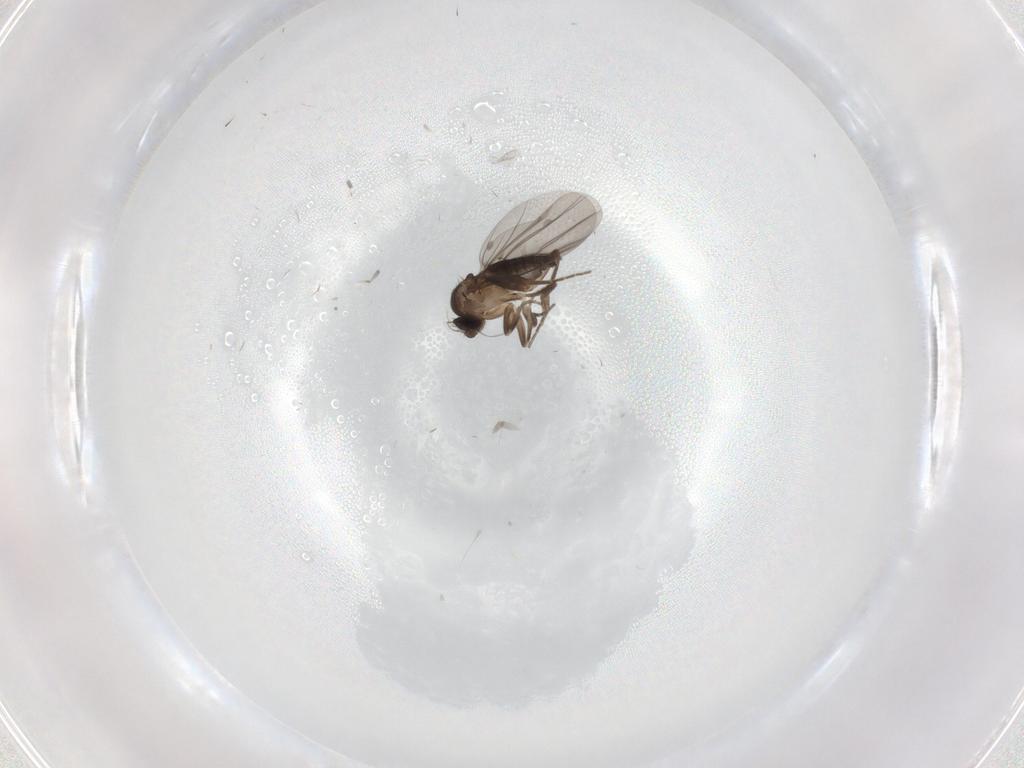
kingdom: Animalia
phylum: Arthropoda
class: Insecta
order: Diptera
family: Phoridae
